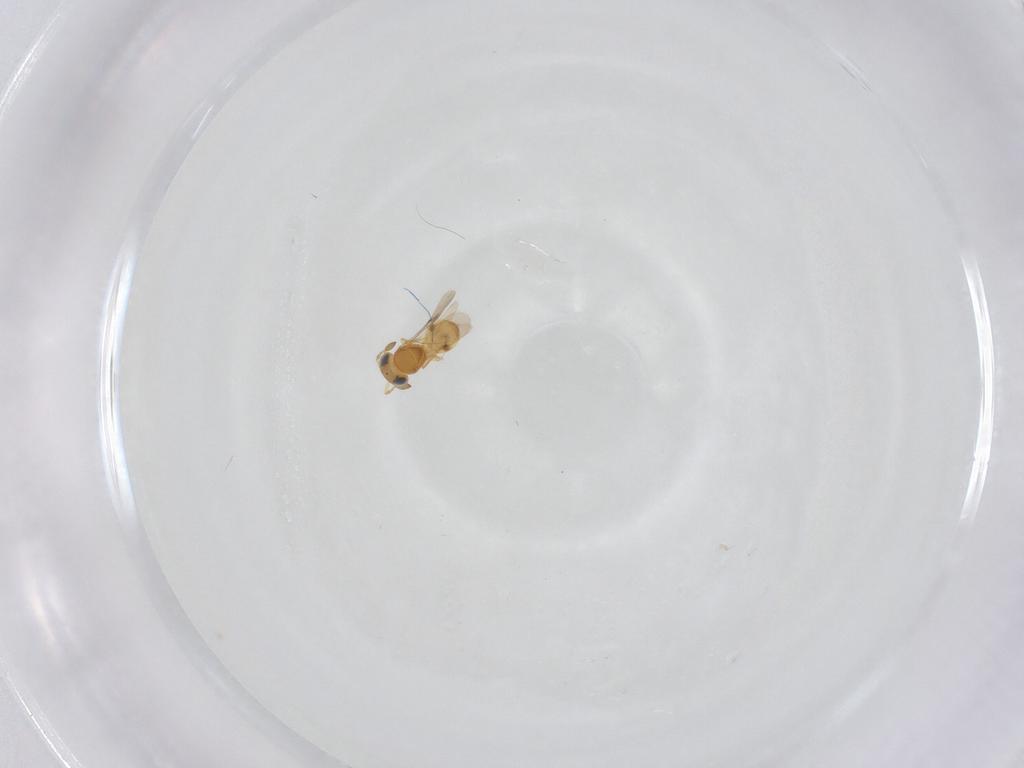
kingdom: Animalia
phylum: Arthropoda
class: Insecta
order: Hymenoptera
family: Scelionidae
